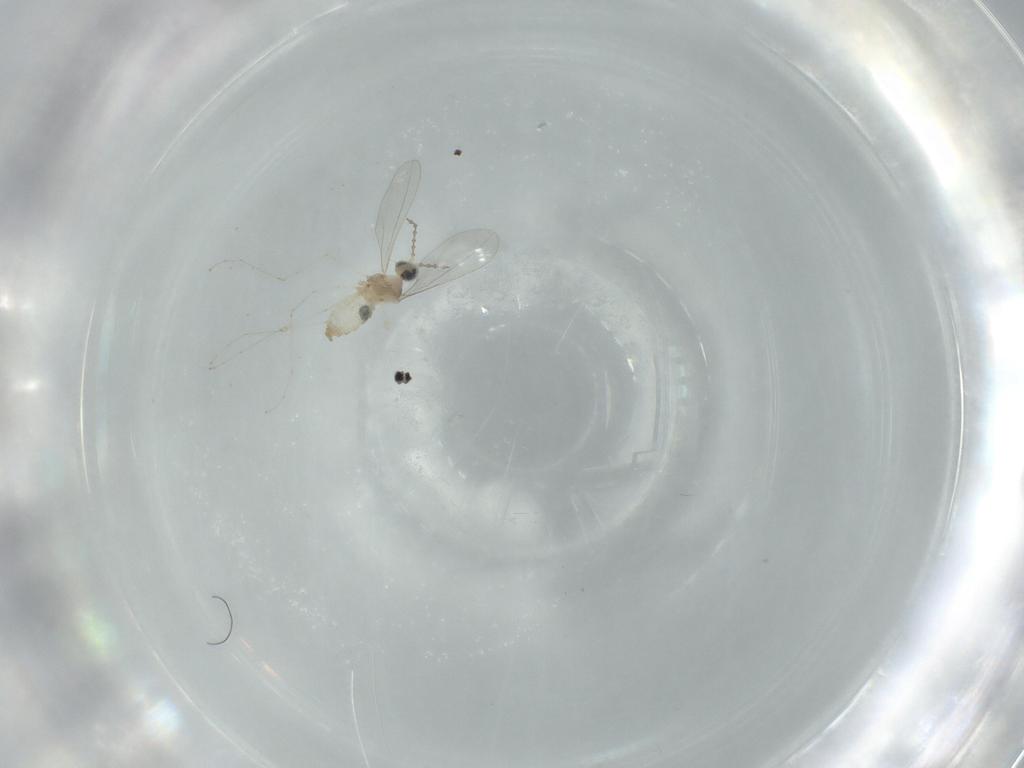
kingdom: Animalia
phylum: Arthropoda
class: Insecta
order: Diptera
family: Cecidomyiidae
